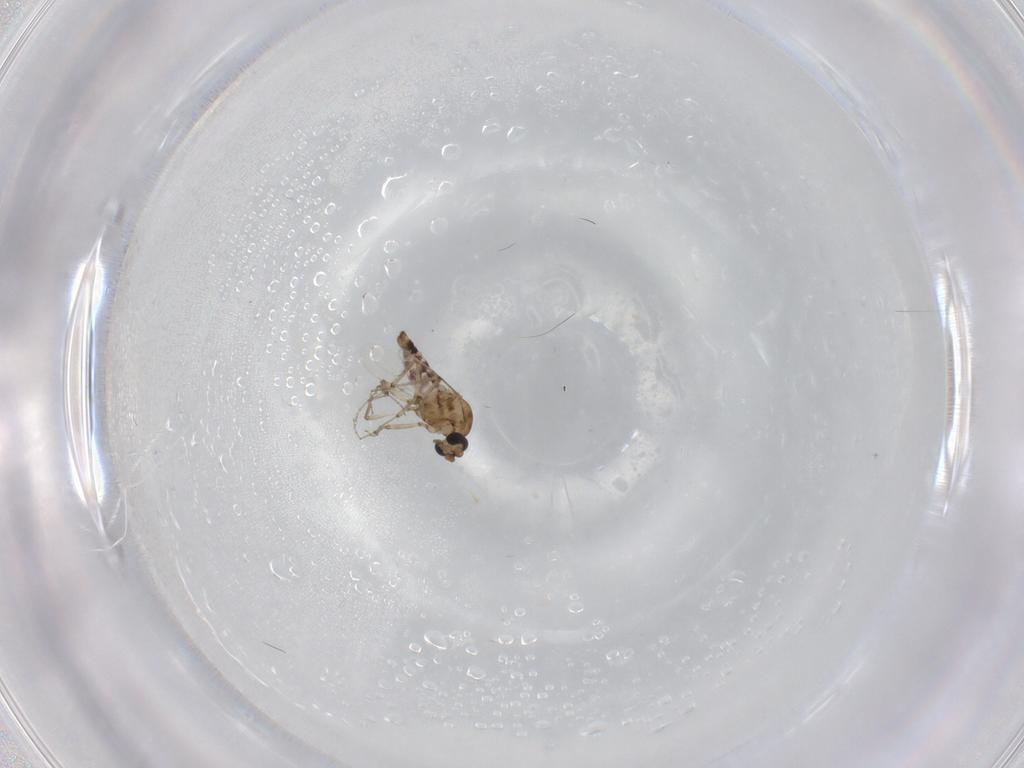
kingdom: Animalia
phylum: Arthropoda
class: Insecta
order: Diptera
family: Ceratopogonidae
